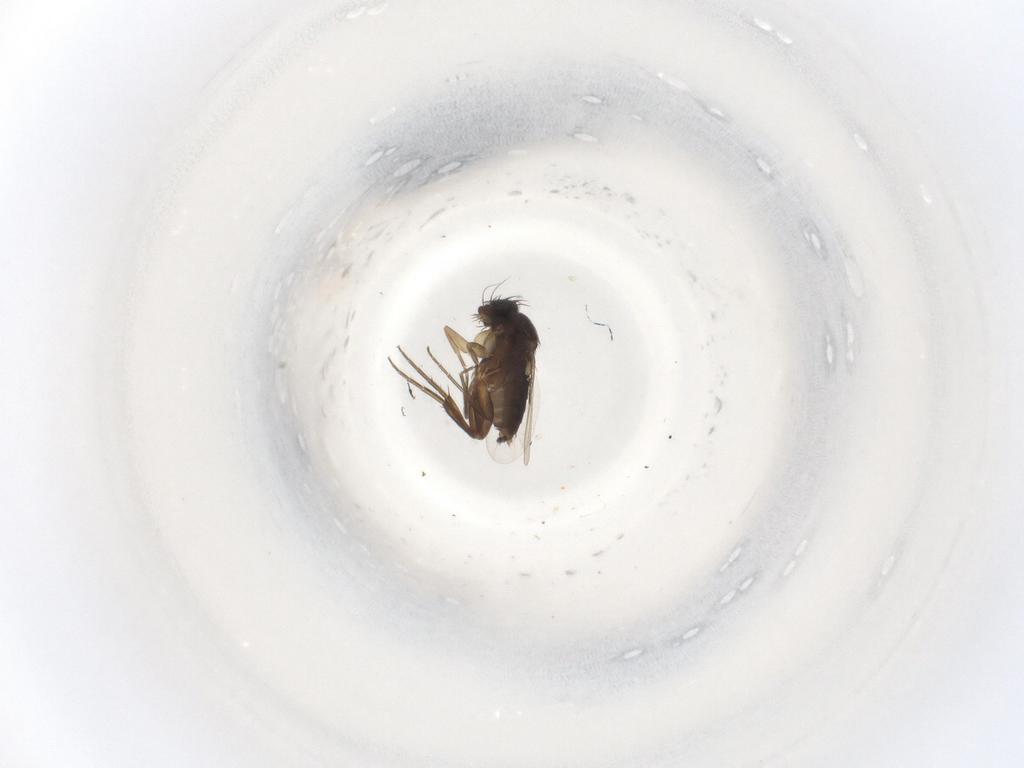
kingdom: Animalia
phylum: Arthropoda
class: Insecta
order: Diptera
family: Phoridae
